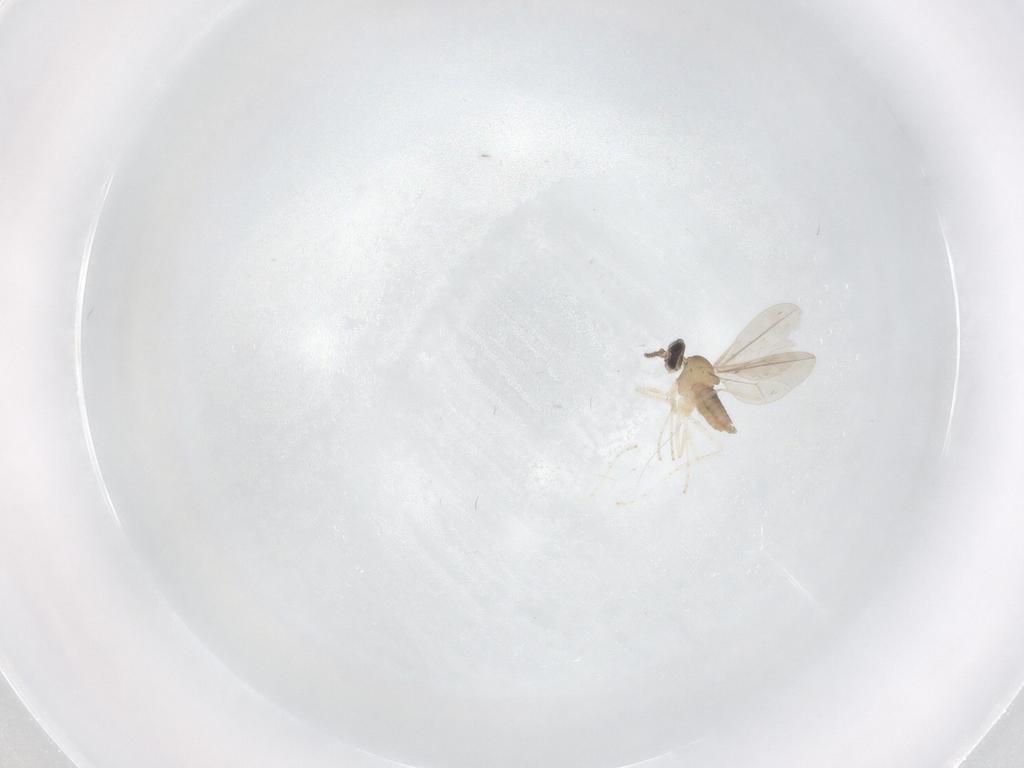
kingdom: Animalia
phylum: Arthropoda
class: Insecta
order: Diptera
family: Cecidomyiidae
